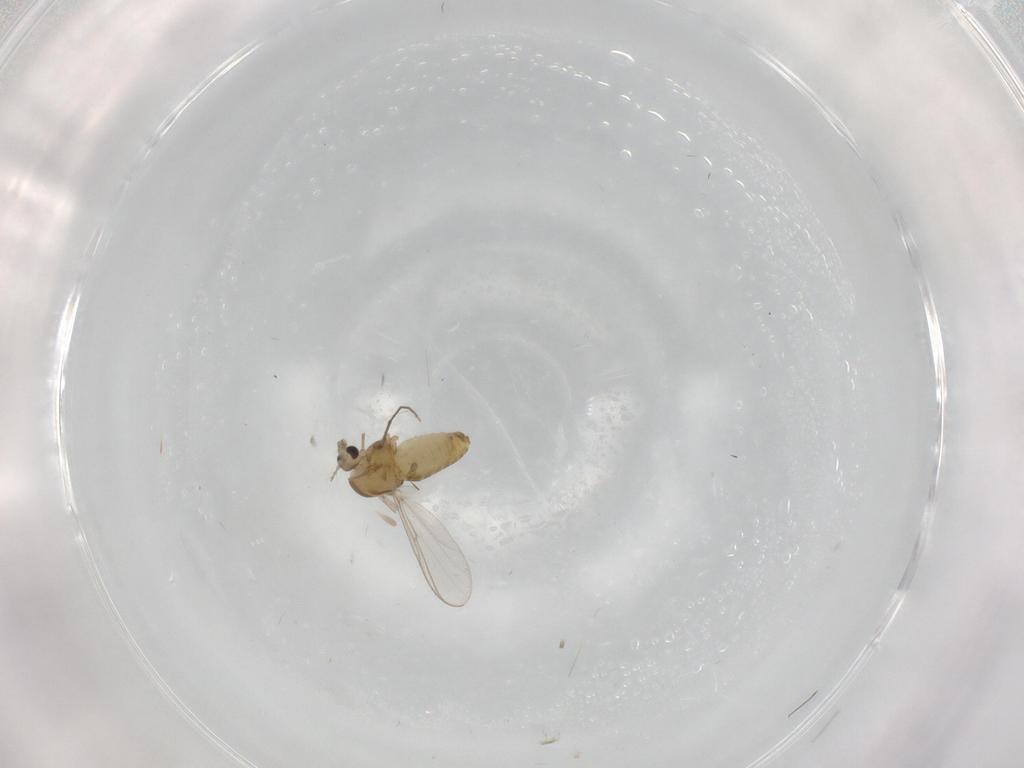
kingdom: Animalia
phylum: Arthropoda
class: Insecta
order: Diptera
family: Chironomidae
